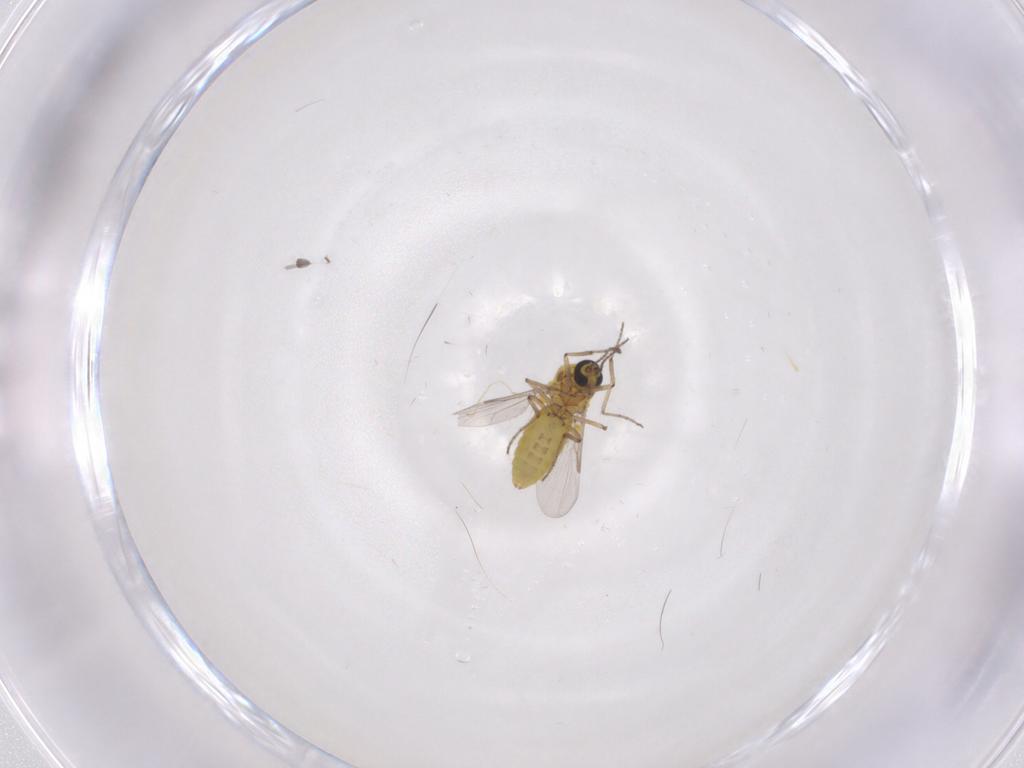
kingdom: Animalia
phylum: Arthropoda
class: Insecta
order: Diptera
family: Ceratopogonidae
